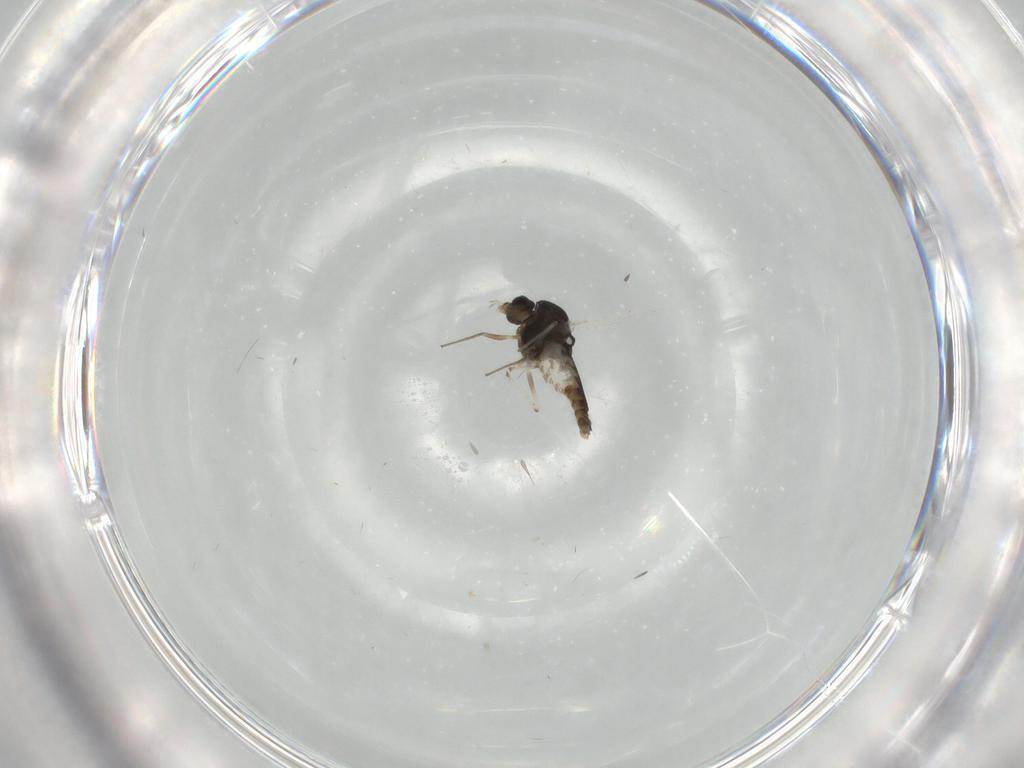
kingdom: Animalia
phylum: Arthropoda
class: Insecta
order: Diptera
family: Chironomidae
